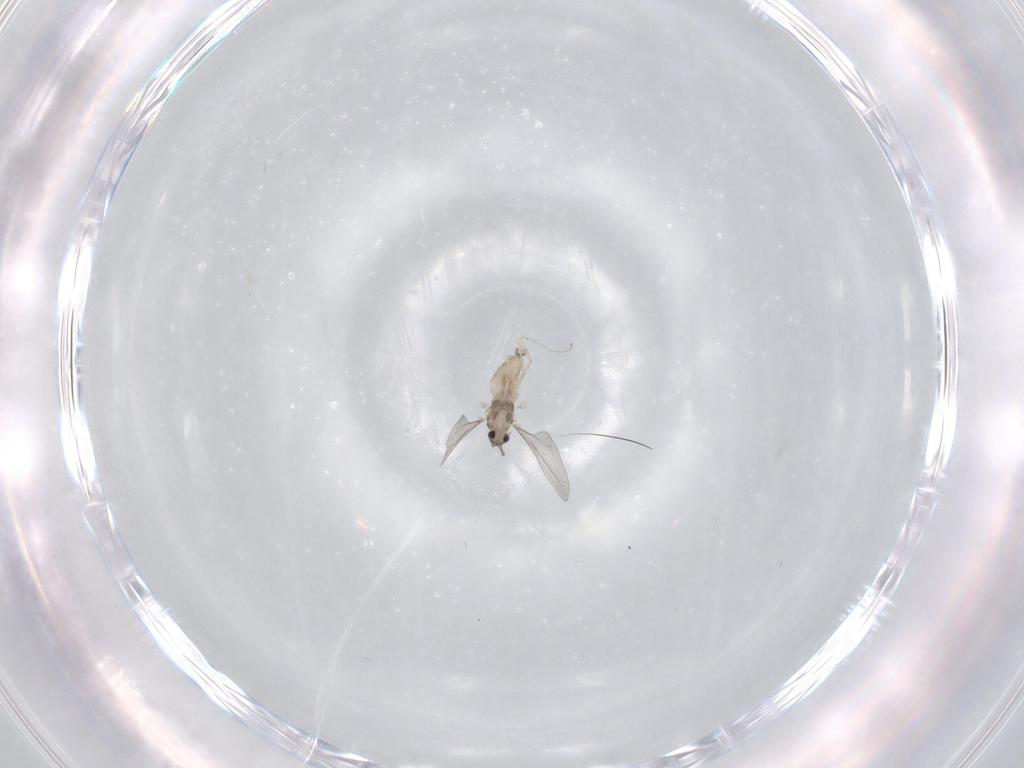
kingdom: Animalia
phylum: Arthropoda
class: Insecta
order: Diptera
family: Cecidomyiidae
